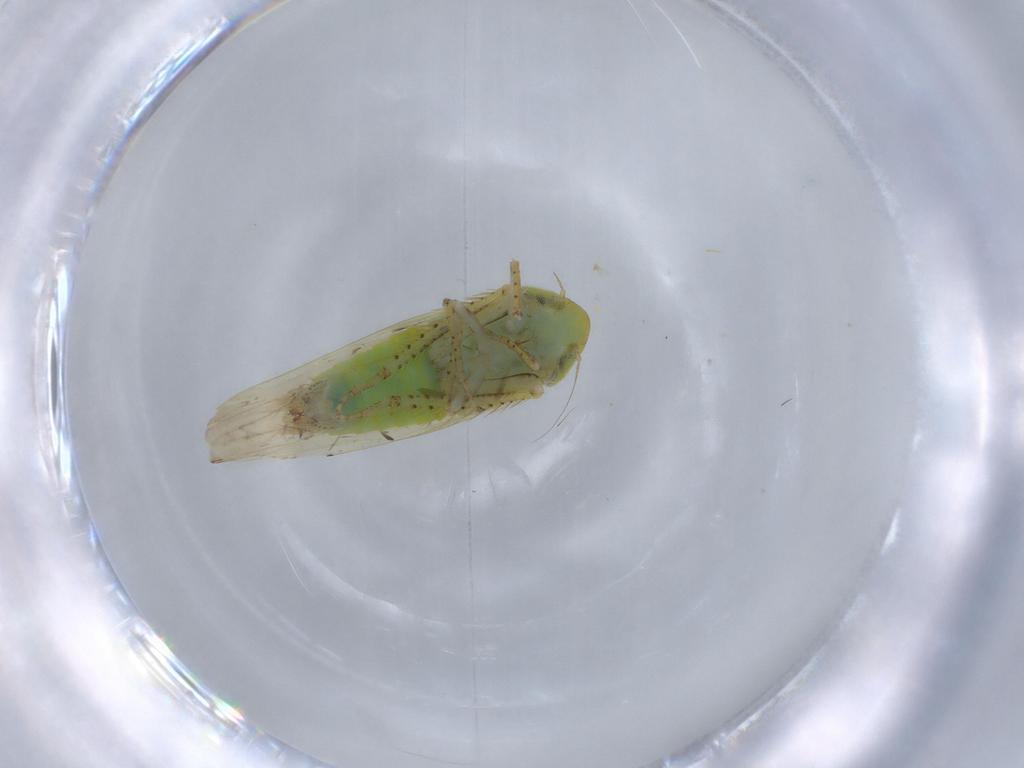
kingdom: Animalia
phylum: Arthropoda
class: Insecta
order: Hemiptera
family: Cicadellidae
